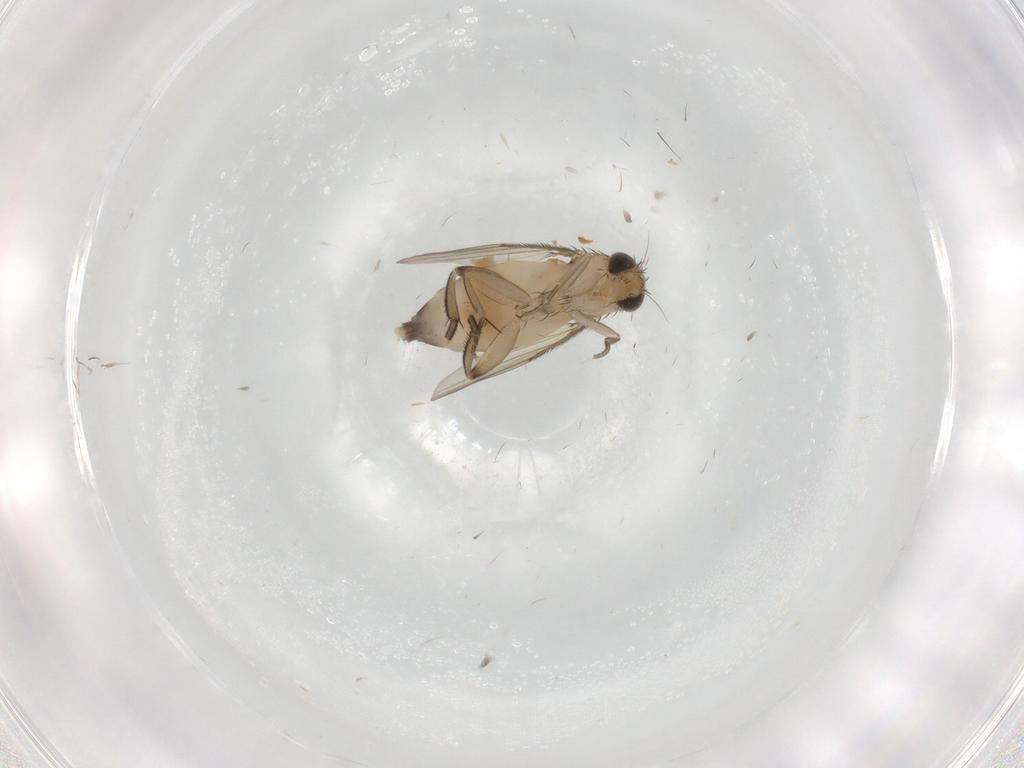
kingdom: Animalia
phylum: Arthropoda
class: Insecta
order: Diptera
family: Phoridae
